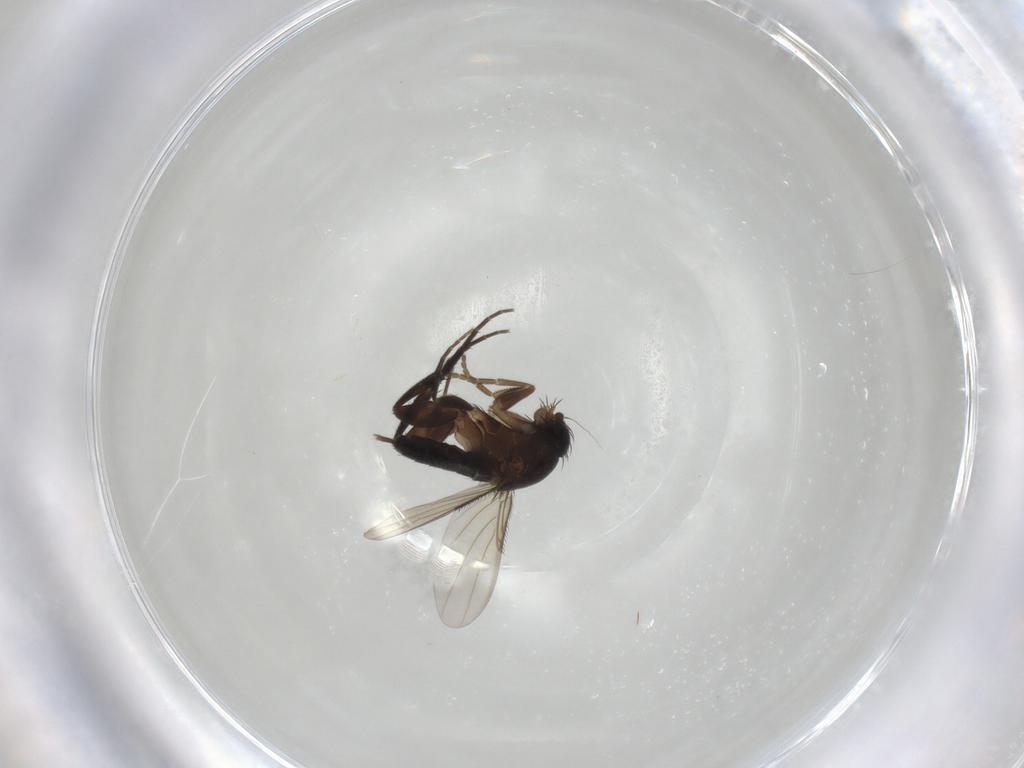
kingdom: Animalia
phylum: Arthropoda
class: Insecta
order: Diptera
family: Phoridae
